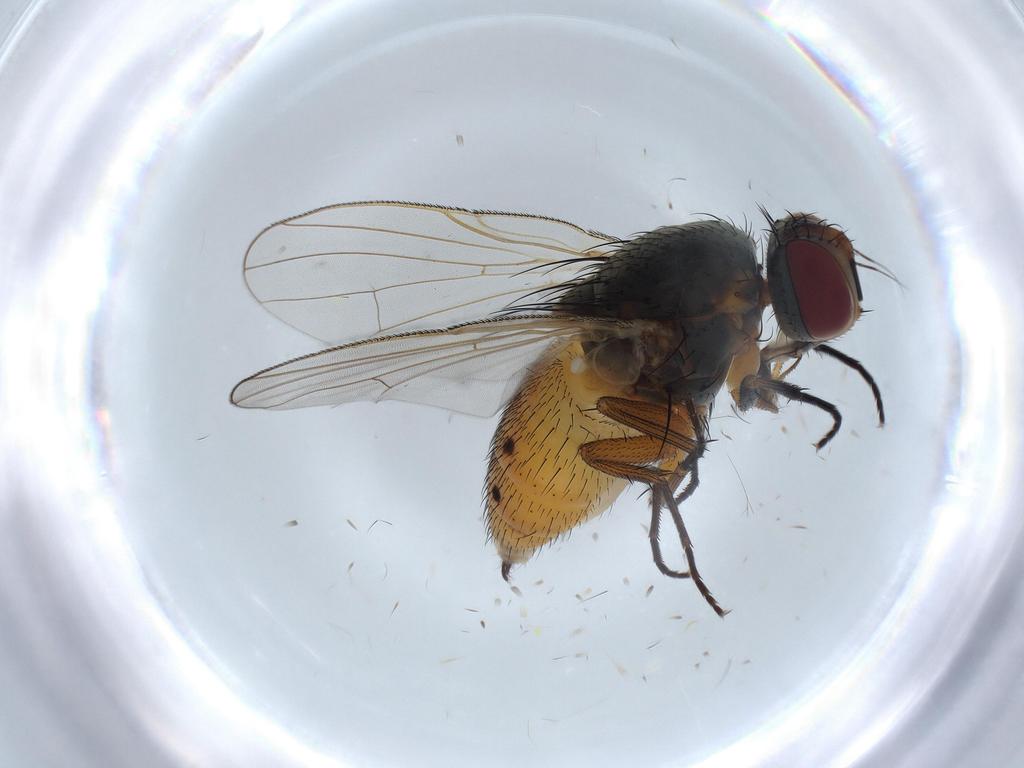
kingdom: Animalia
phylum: Arthropoda
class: Insecta
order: Diptera
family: Muscidae
